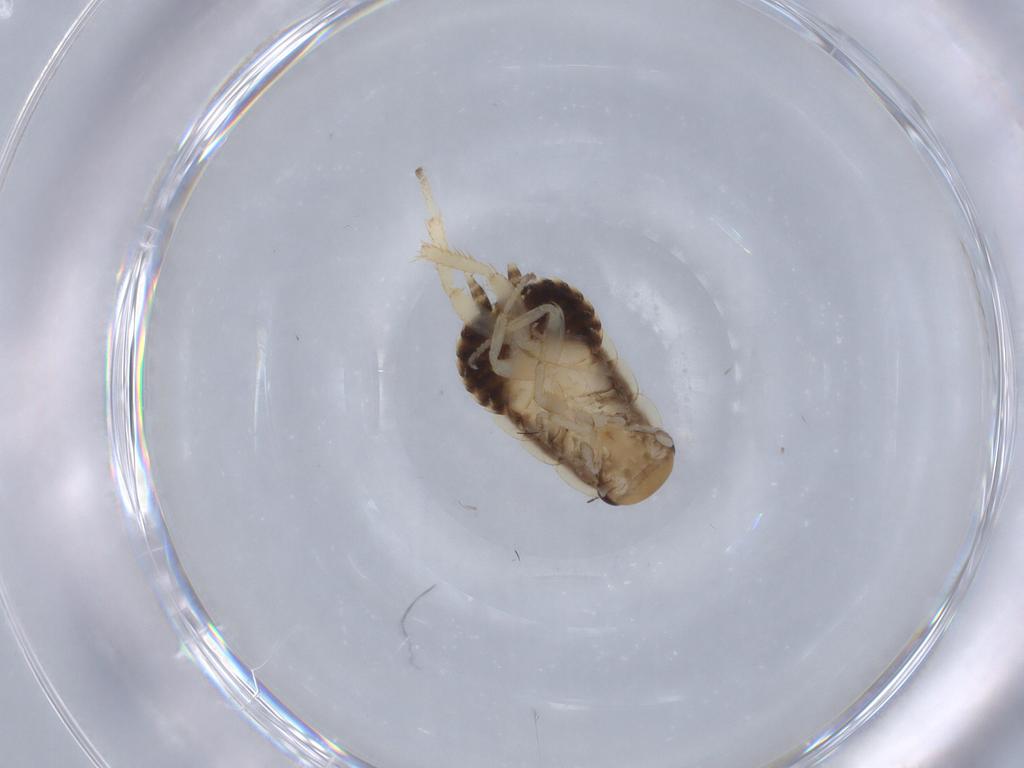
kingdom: Animalia
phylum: Arthropoda
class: Insecta
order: Blattodea
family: Ectobiidae
